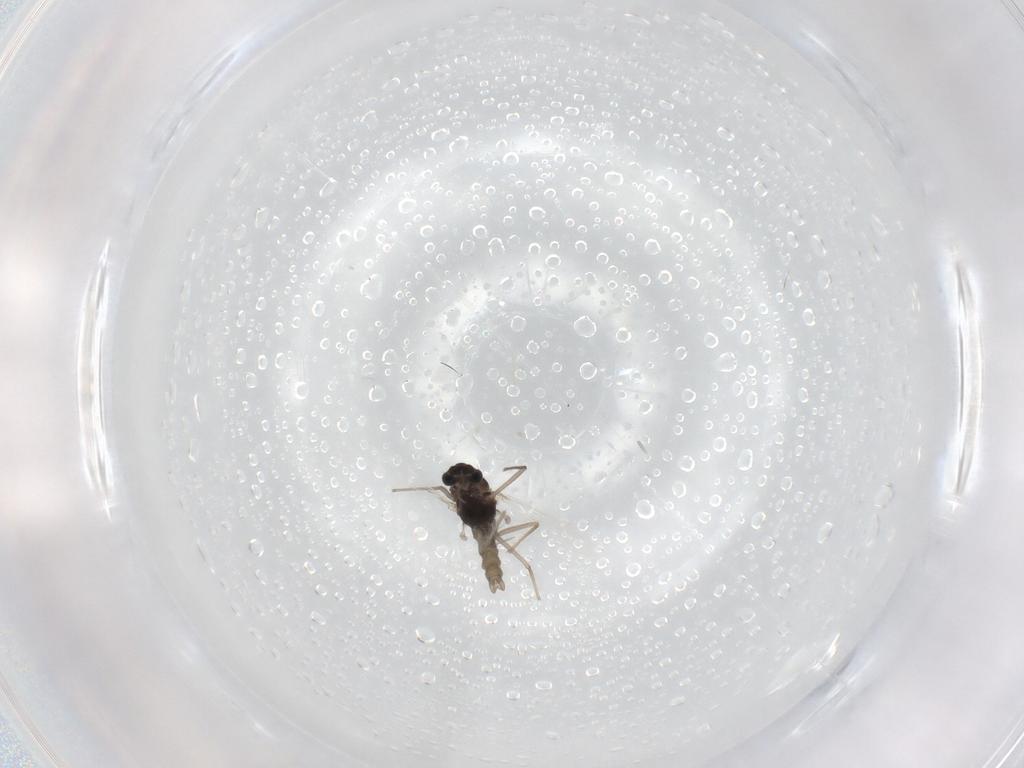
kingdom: Animalia
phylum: Arthropoda
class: Insecta
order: Diptera
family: Chironomidae
